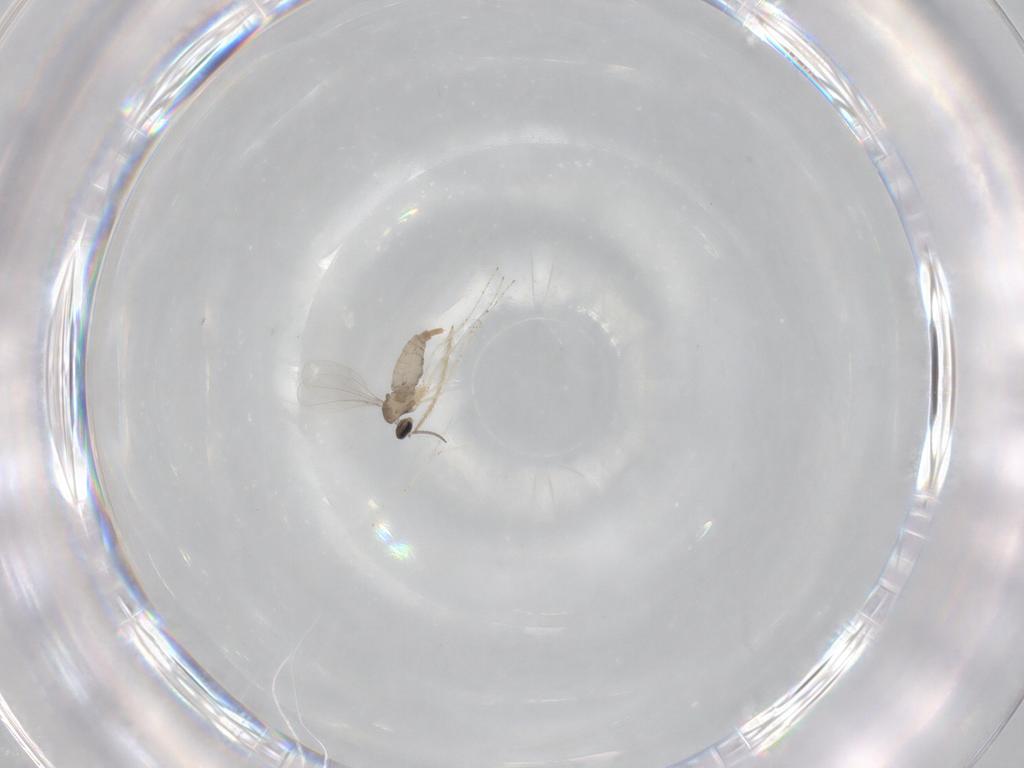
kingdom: Animalia
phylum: Arthropoda
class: Insecta
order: Diptera
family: Cecidomyiidae
